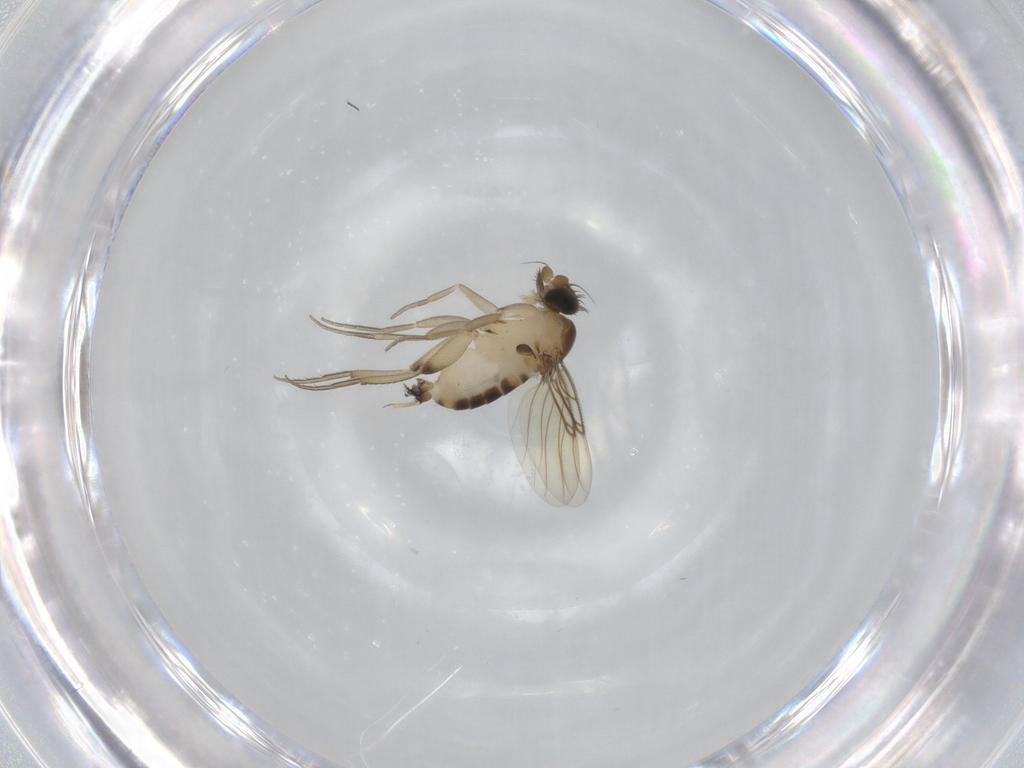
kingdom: Animalia
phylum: Arthropoda
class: Insecta
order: Diptera
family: Phoridae
